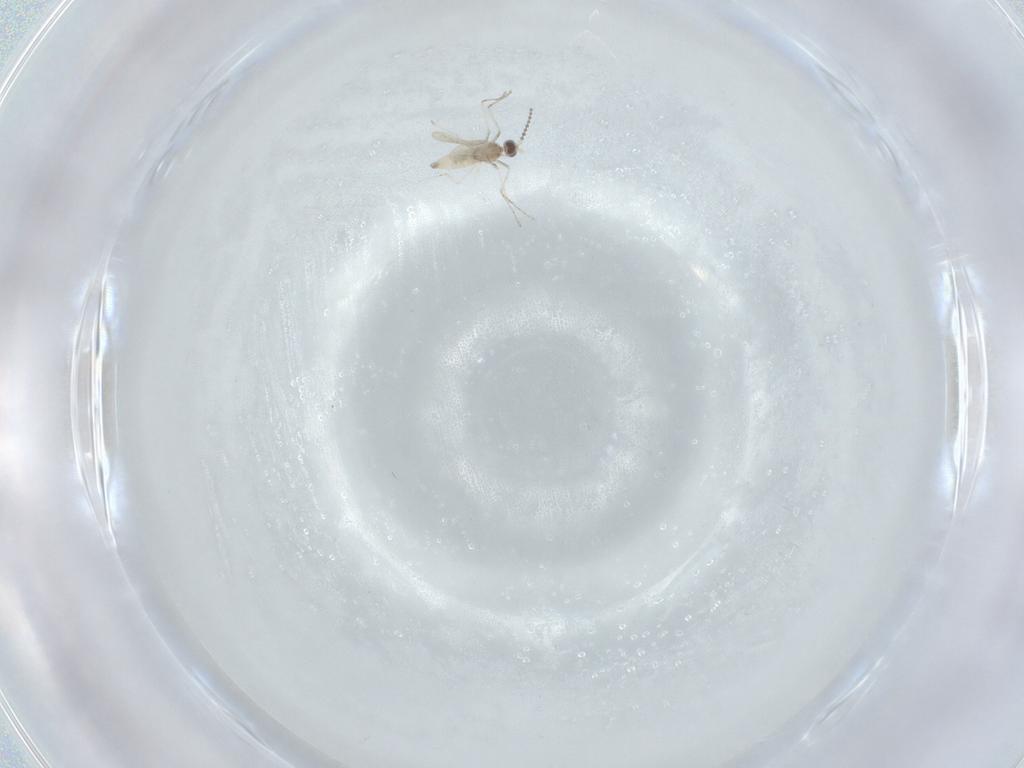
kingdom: Animalia
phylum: Arthropoda
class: Insecta
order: Diptera
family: Cecidomyiidae
